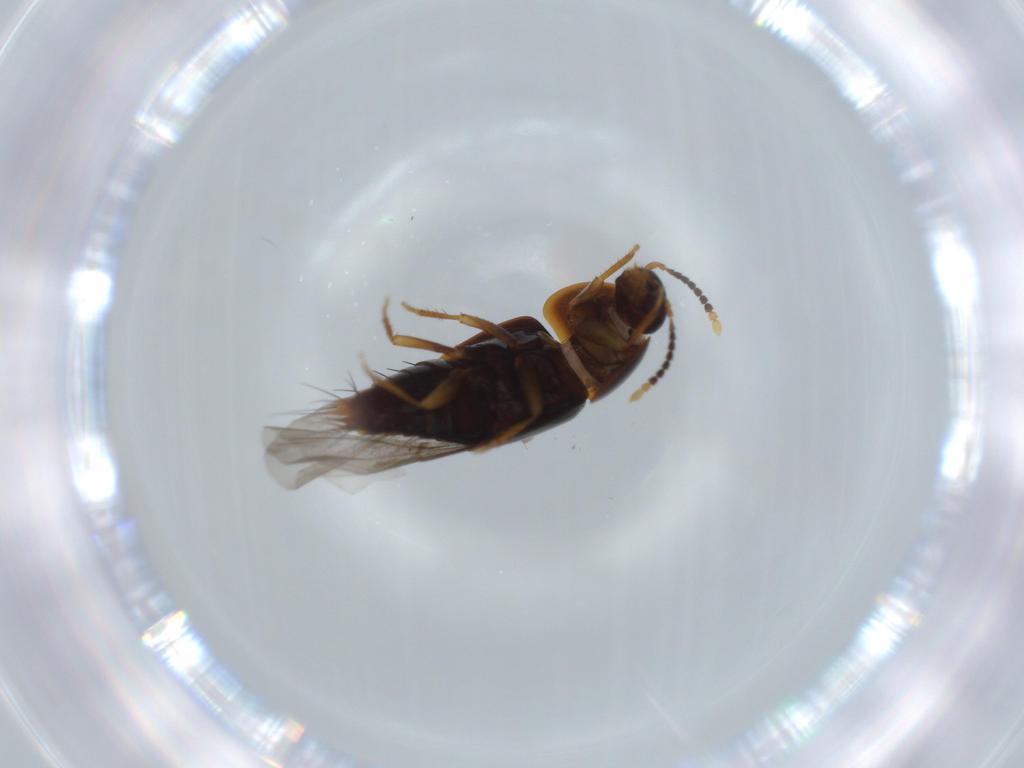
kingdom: Animalia
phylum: Arthropoda
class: Insecta
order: Coleoptera
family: Staphylinidae
